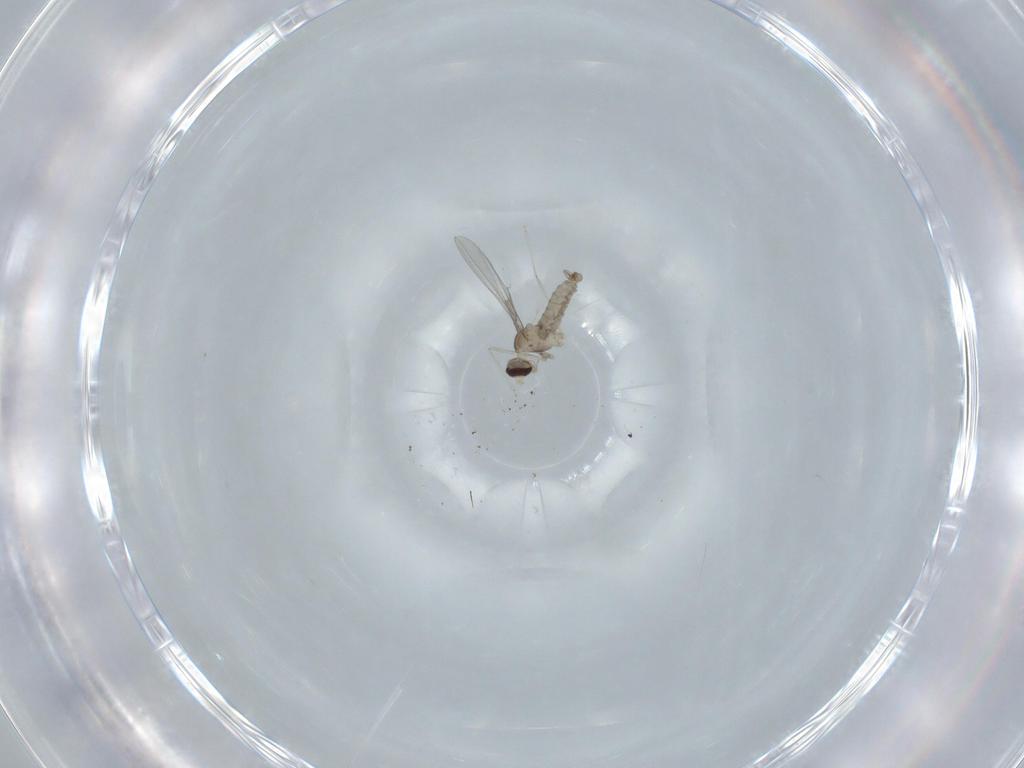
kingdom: Animalia
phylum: Arthropoda
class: Insecta
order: Diptera
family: Cecidomyiidae
